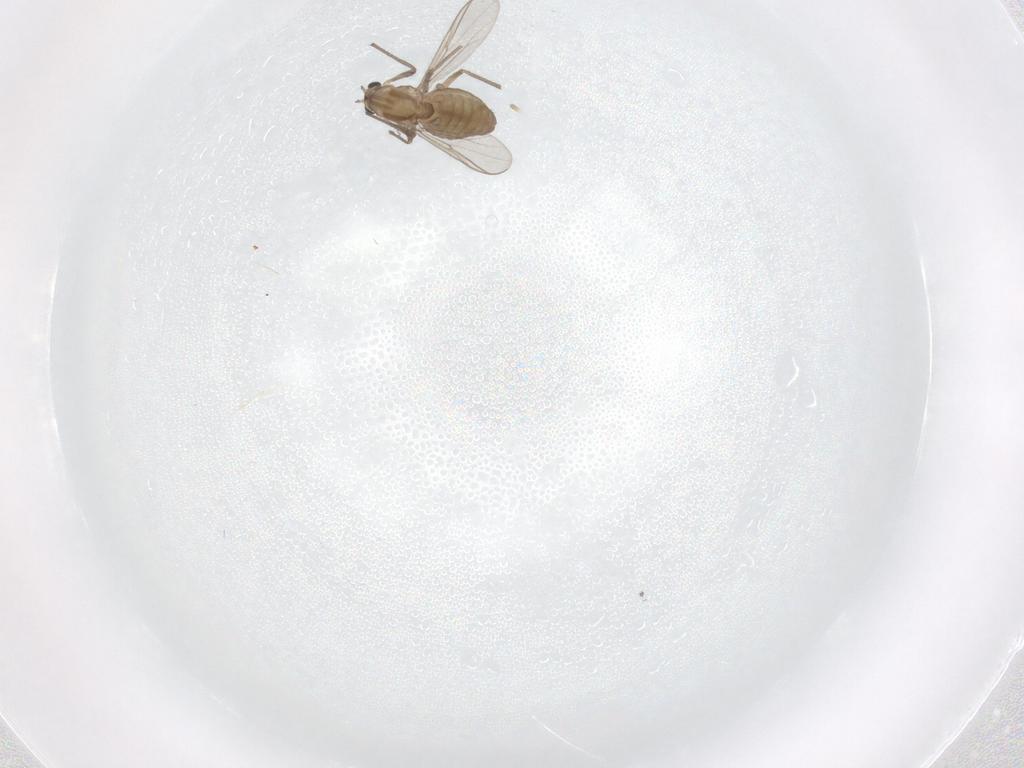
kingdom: Animalia
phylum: Arthropoda
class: Insecta
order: Diptera
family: Chironomidae
